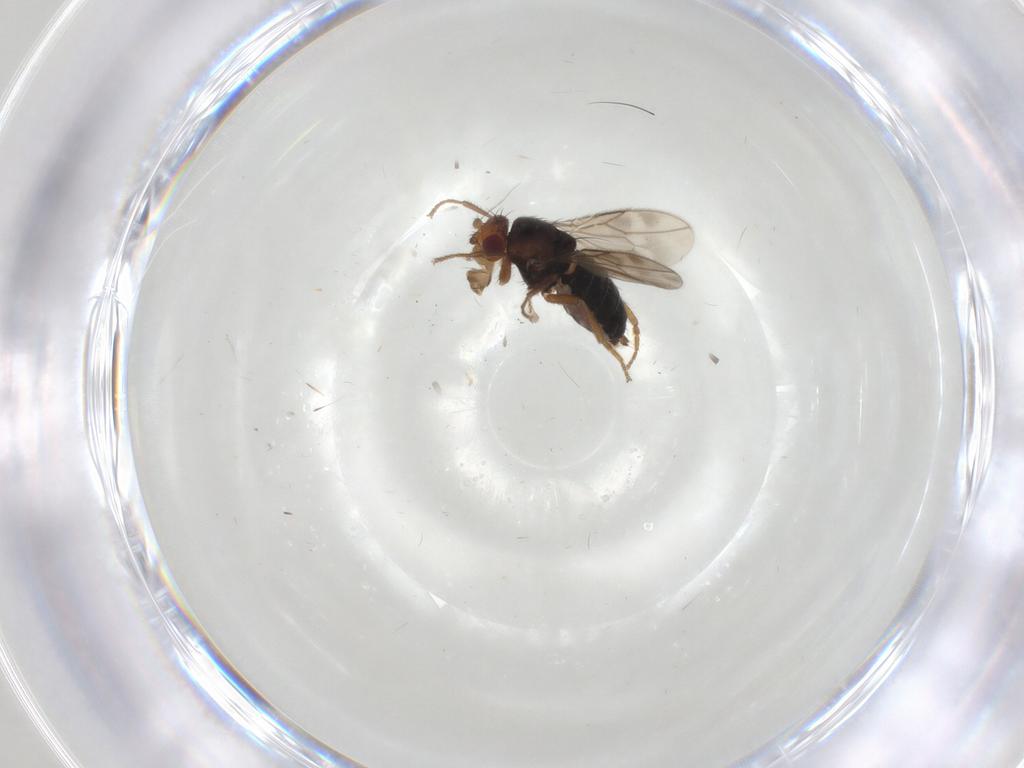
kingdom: Animalia
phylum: Arthropoda
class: Insecta
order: Diptera
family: Sphaeroceridae
